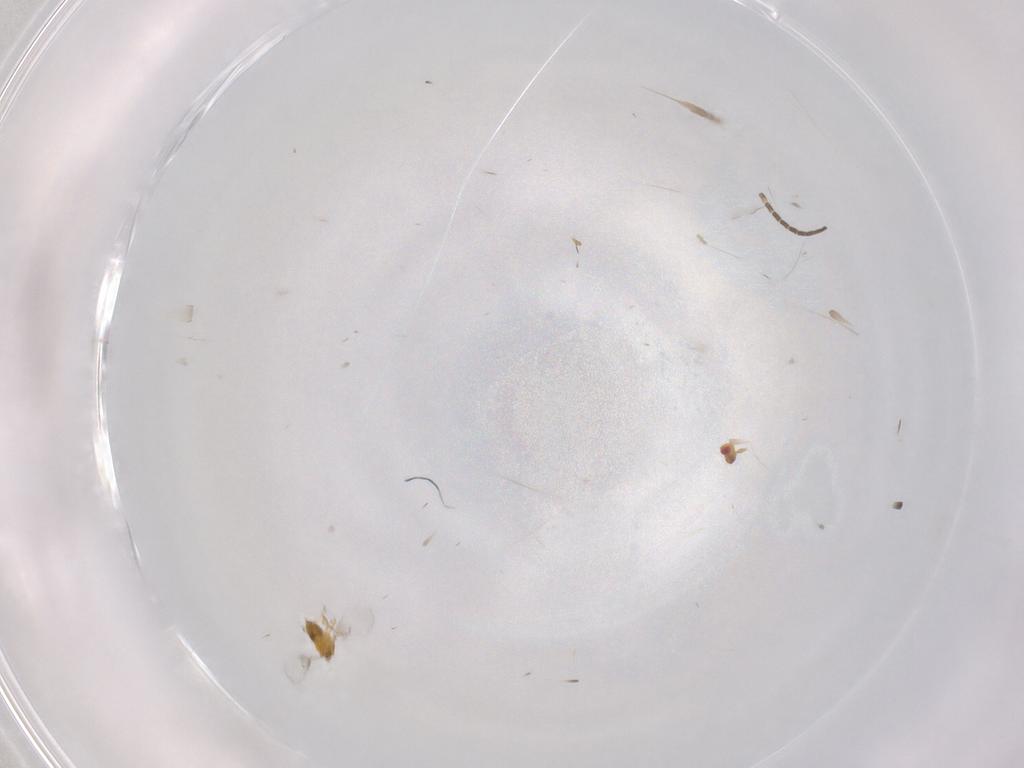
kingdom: Animalia
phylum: Arthropoda
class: Insecta
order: Hymenoptera
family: Trichogrammatidae
